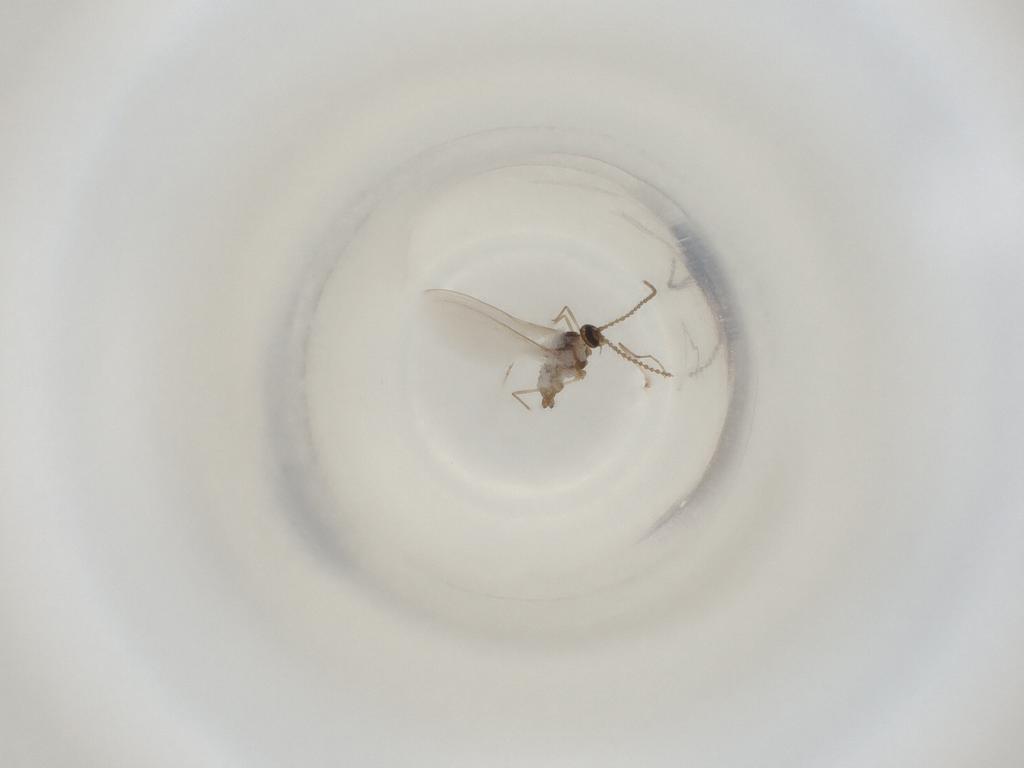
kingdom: Animalia
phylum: Arthropoda
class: Insecta
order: Diptera
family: Cecidomyiidae
